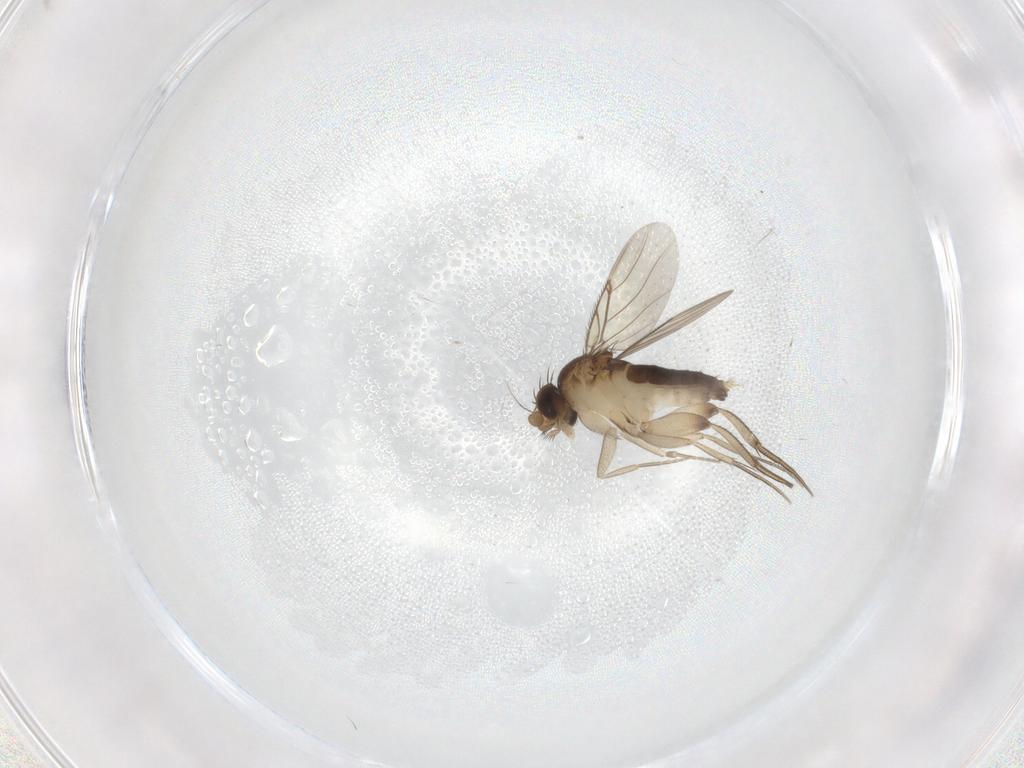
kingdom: Animalia
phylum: Arthropoda
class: Insecta
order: Diptera
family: Phoridae
